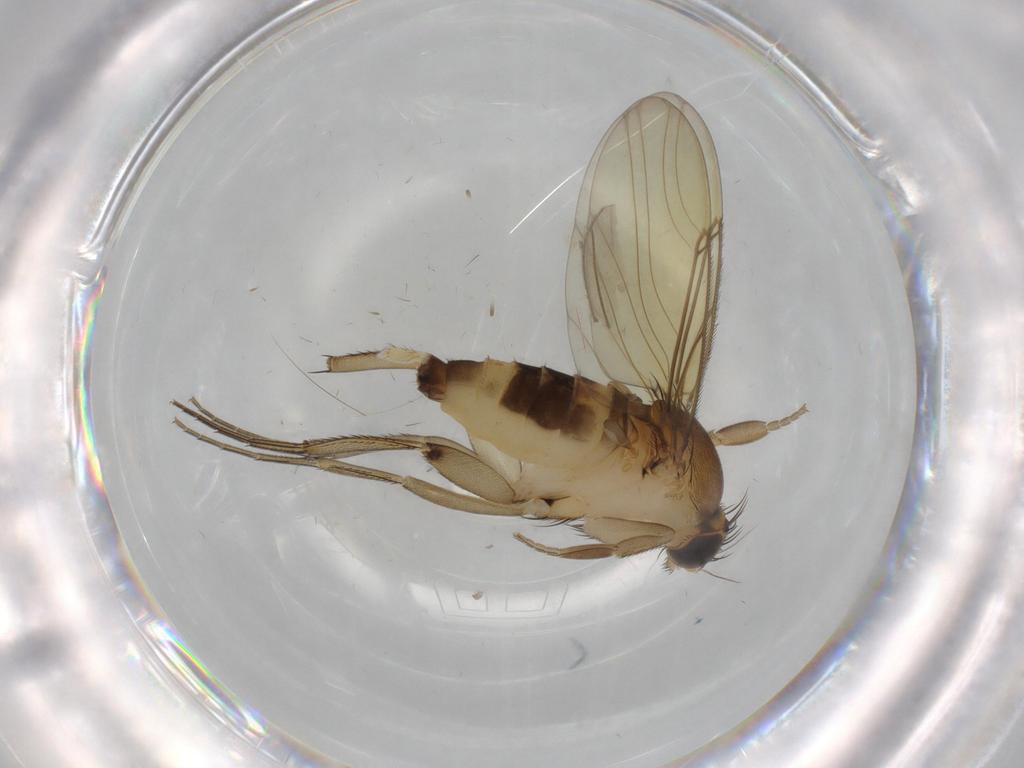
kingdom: Animalia
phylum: Arthropoda
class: Insecta
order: Diptera
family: Phoridae
